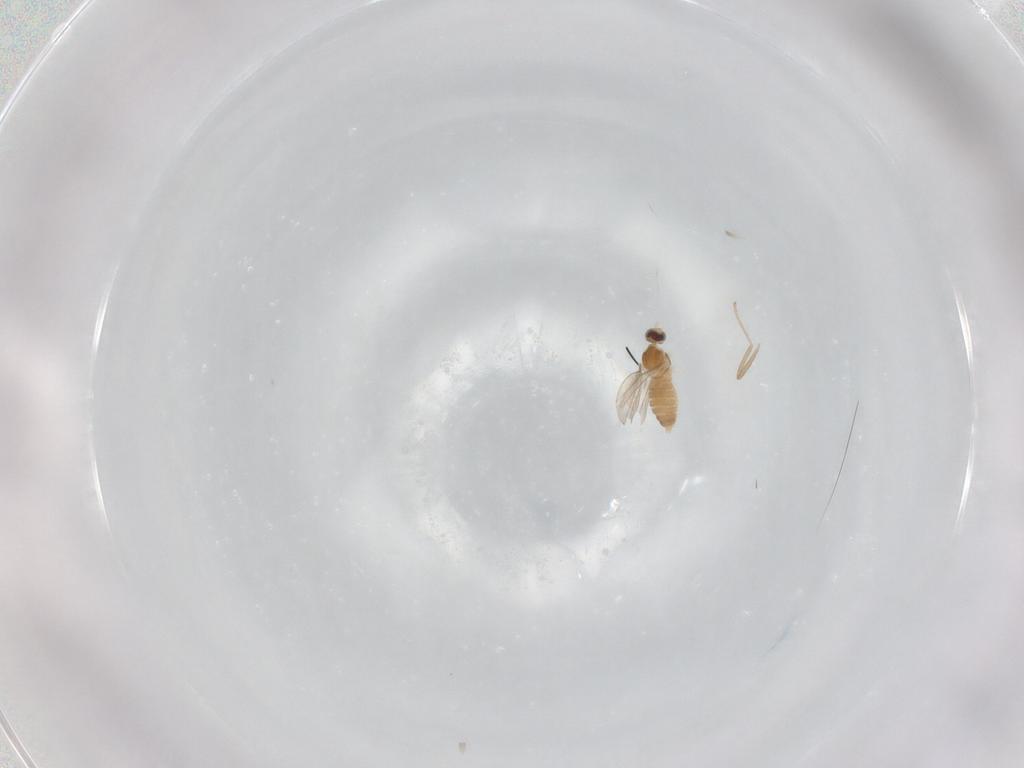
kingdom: Animalia
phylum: Arthropoda
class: Insecta
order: Diptera
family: Cecidomyiidae
